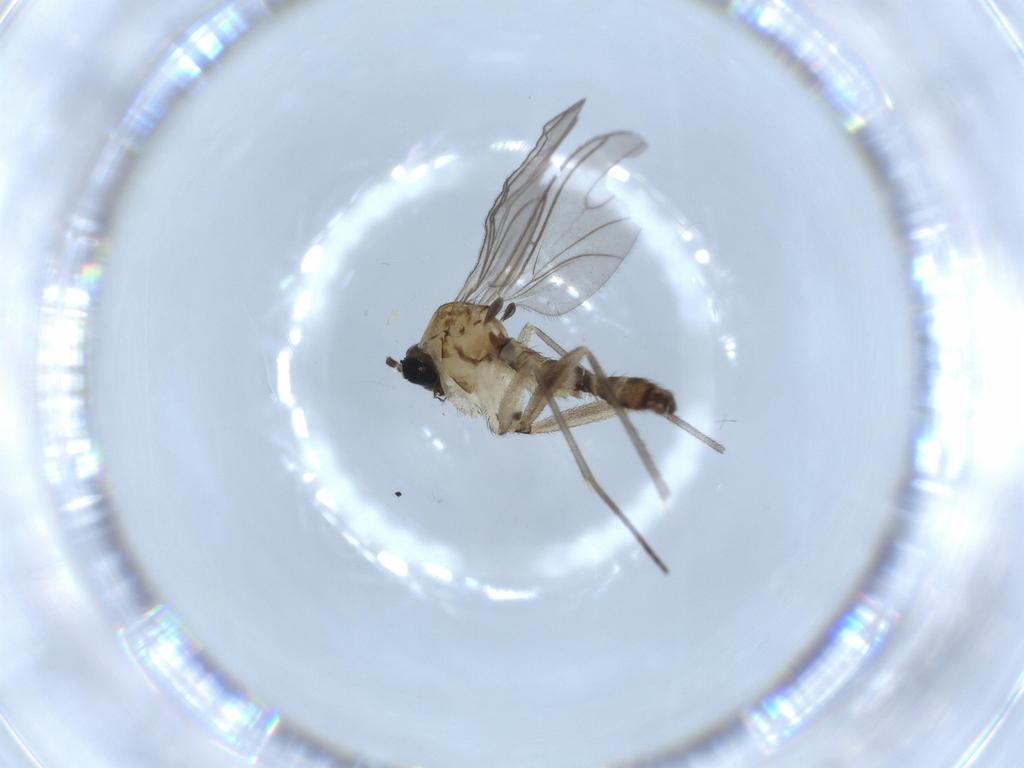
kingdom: Animalia
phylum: Arthropoda
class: Insecta
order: Diptera
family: Sciaridae
